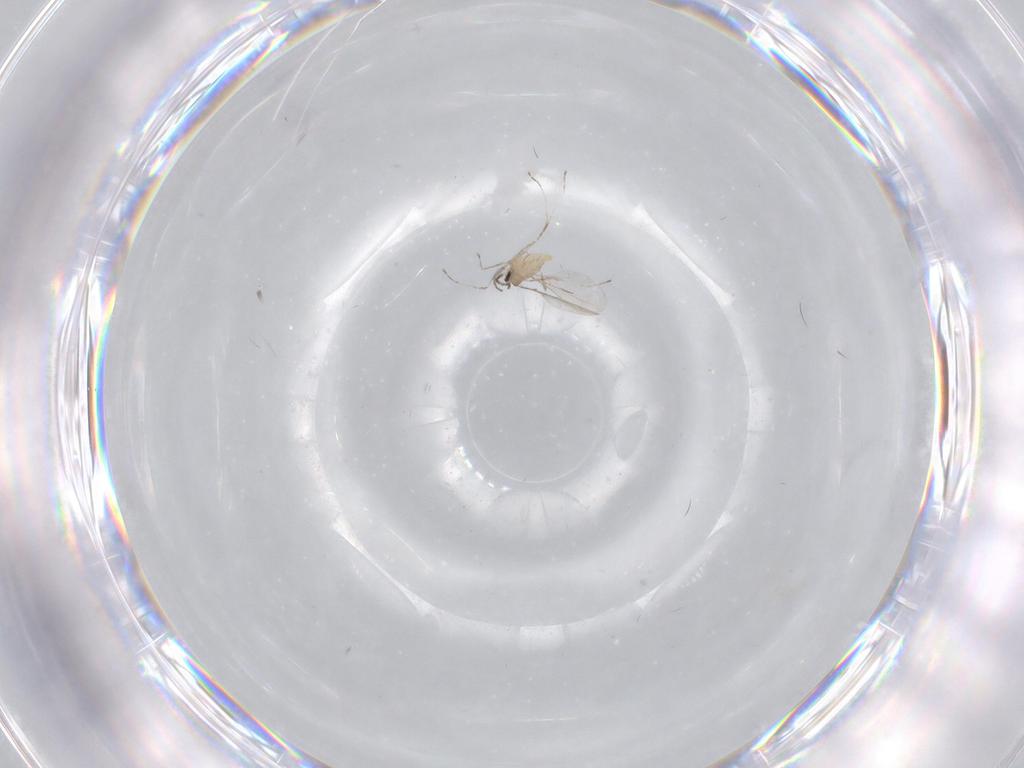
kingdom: Animalia
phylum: Arthropoda
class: Insecta
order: Diptera
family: Cecidomyiidae
